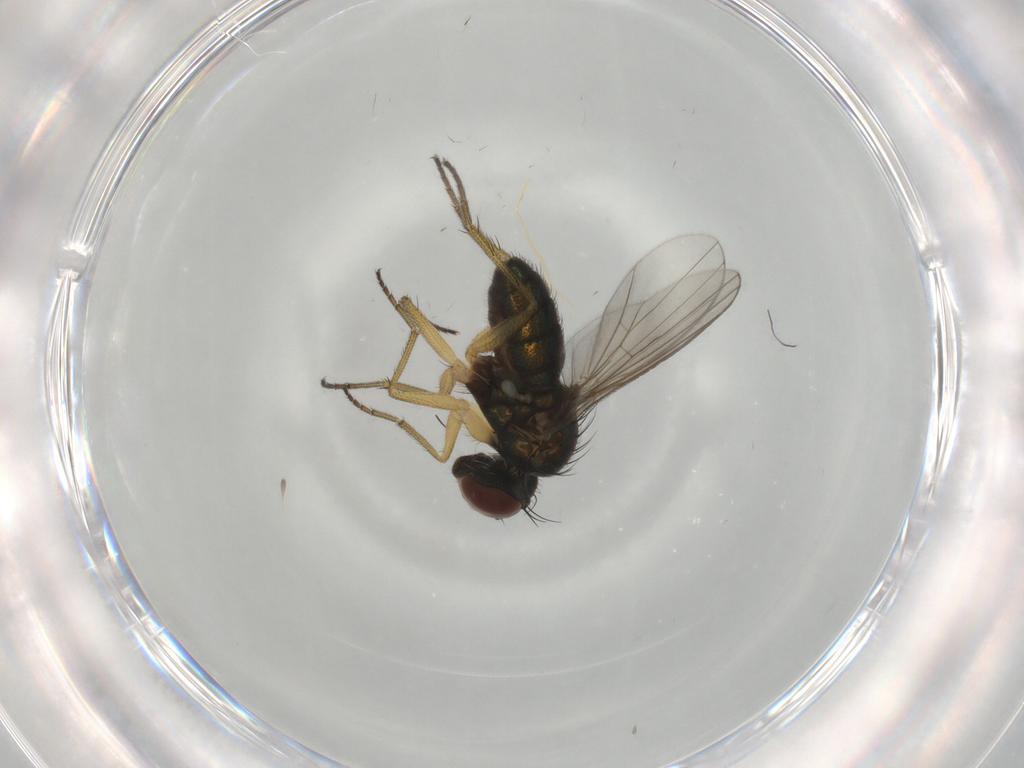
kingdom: Animalia
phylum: Arthropoda
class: Insecta
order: Diptera
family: Dolichopodidae
